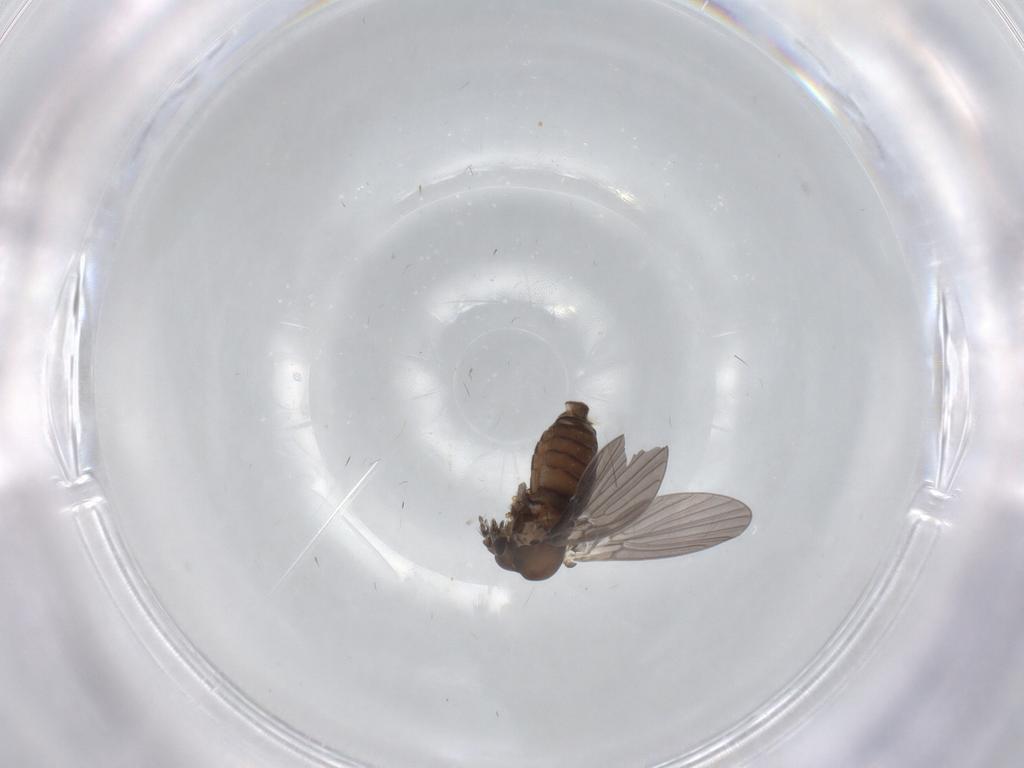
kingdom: Animalia
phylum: Arthropoda
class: Insecta
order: Diptera
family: Psychodidae
